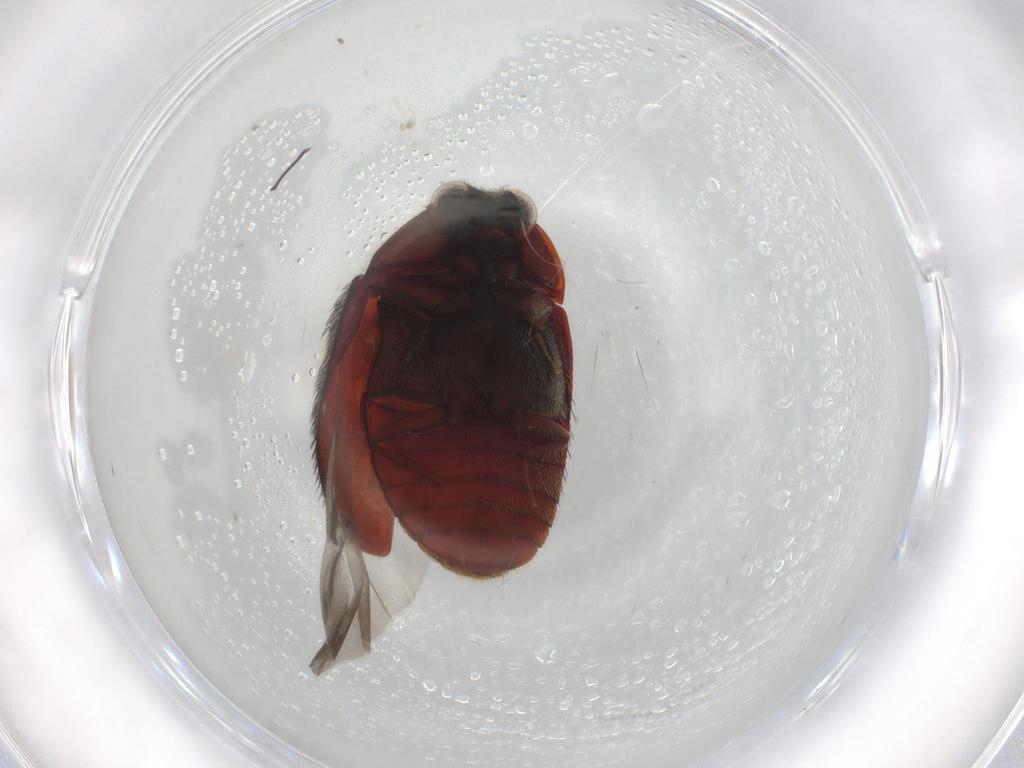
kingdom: Animalia
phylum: Arthropoda
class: Insecta
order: Coleoptera
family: Dermestidae
